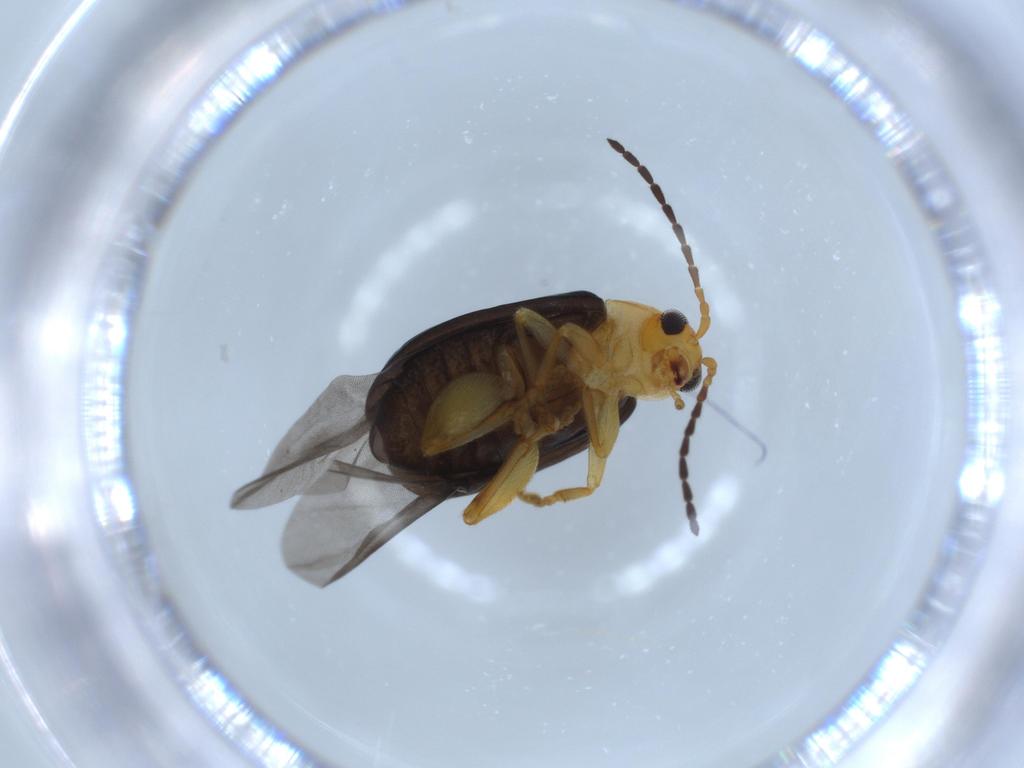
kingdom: Animalia
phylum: Arthropoda
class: Insecta
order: Coleoptera
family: Chrysomelidae
